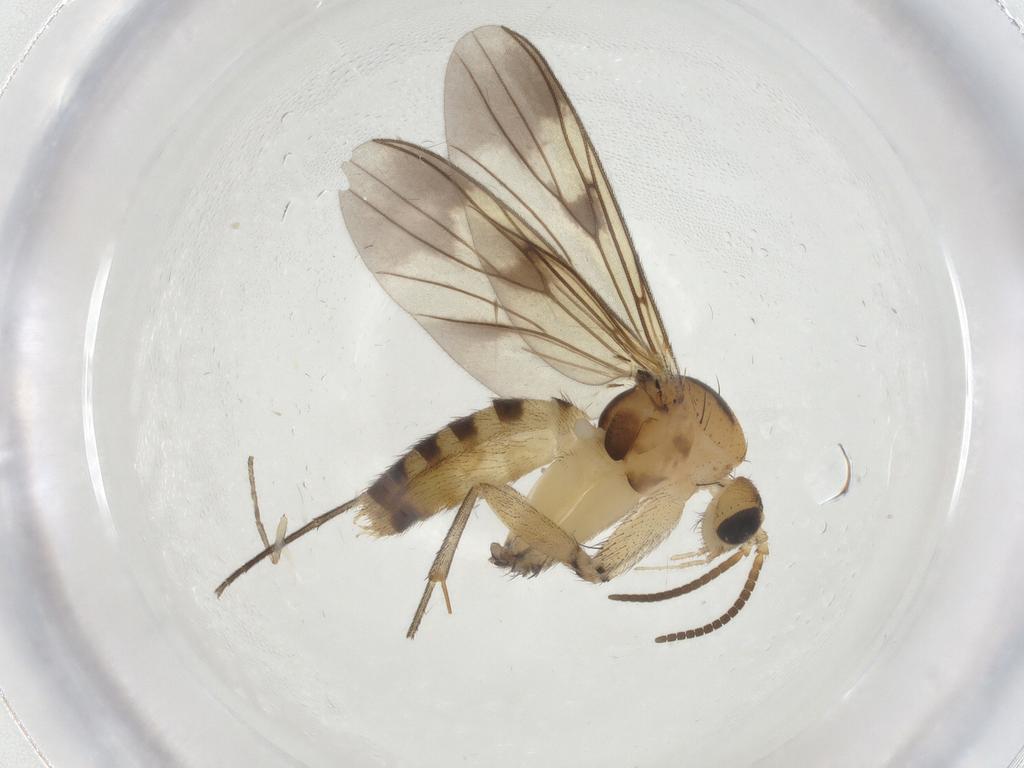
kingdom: Animalia
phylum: Arthropoda
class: Insecta
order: Diptera
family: Mycetophilidae
